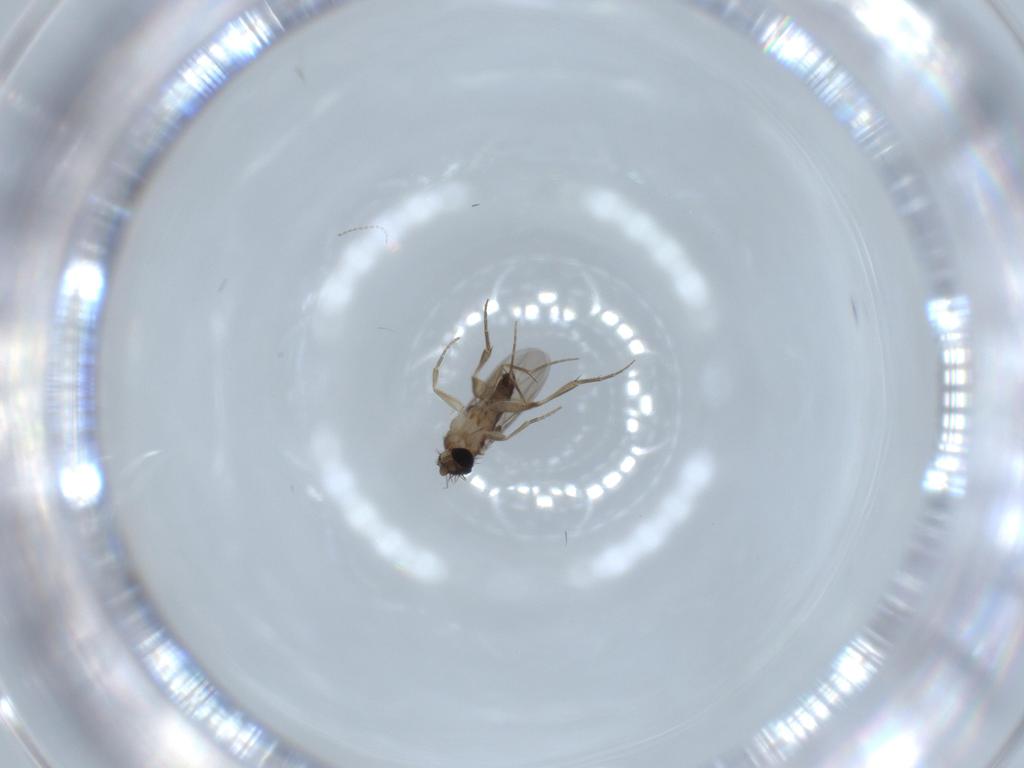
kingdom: Animalia
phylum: Arthropoda
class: Insecta
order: Diptera
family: Phoridae
